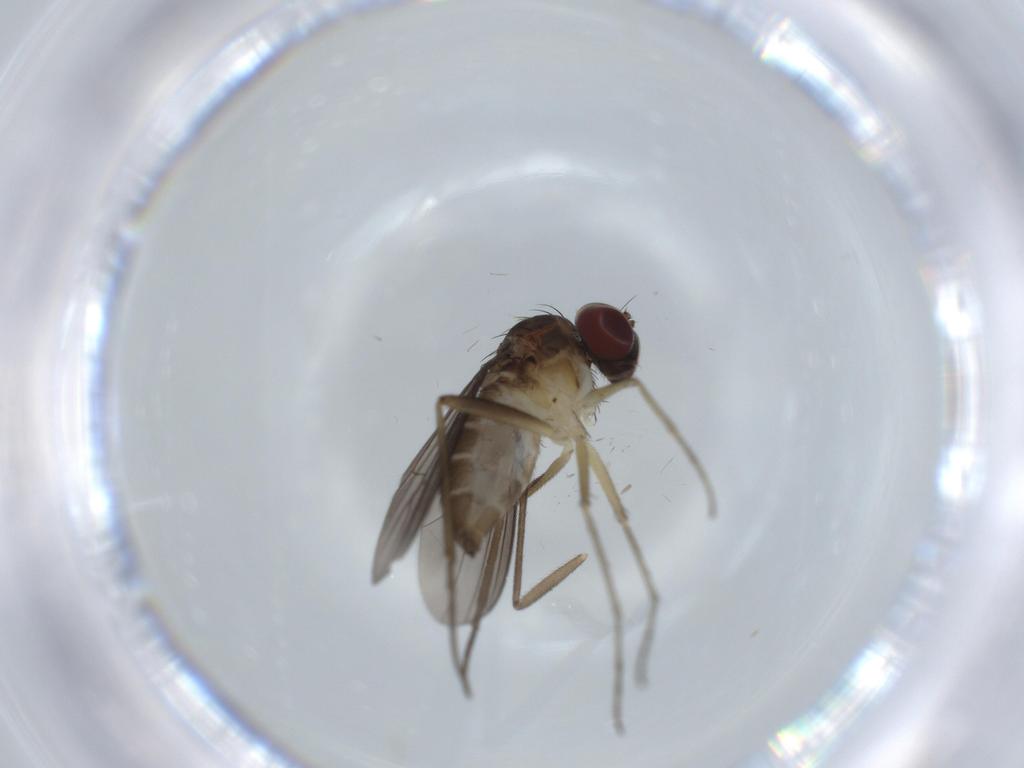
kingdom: Animalia
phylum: Arthropoda
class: Insecta
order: Diptera
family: Dolichopodidae
